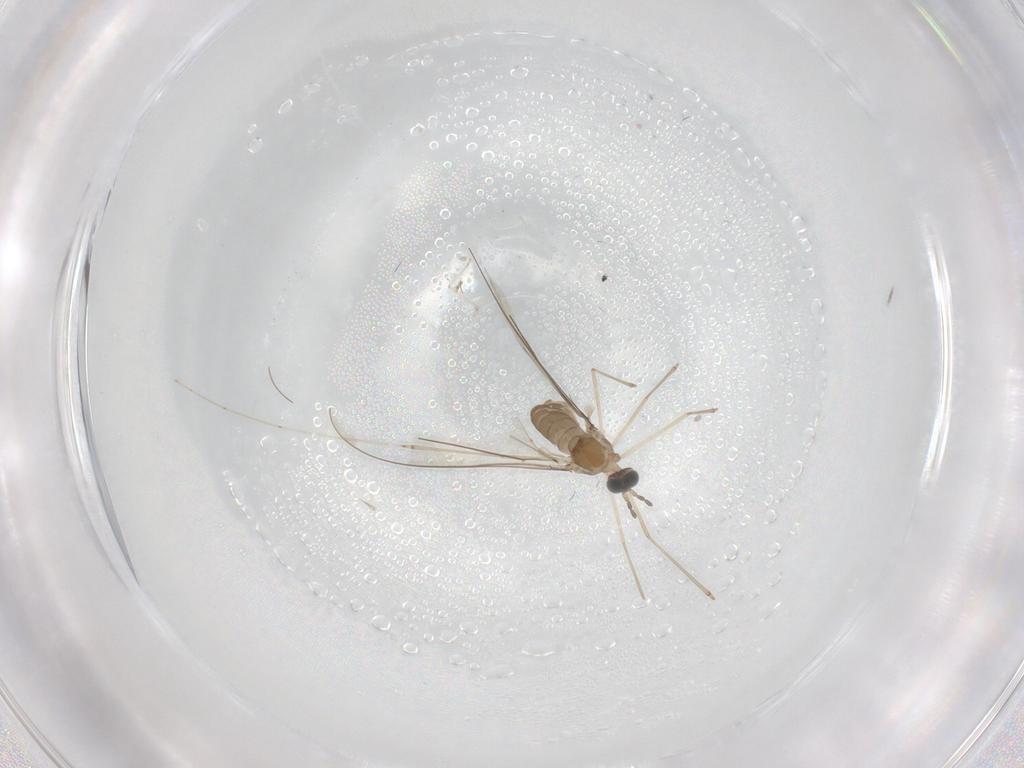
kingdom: Animalia
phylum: Arthropoda
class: Insecta
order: Diptera
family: Cecidomyiidae
